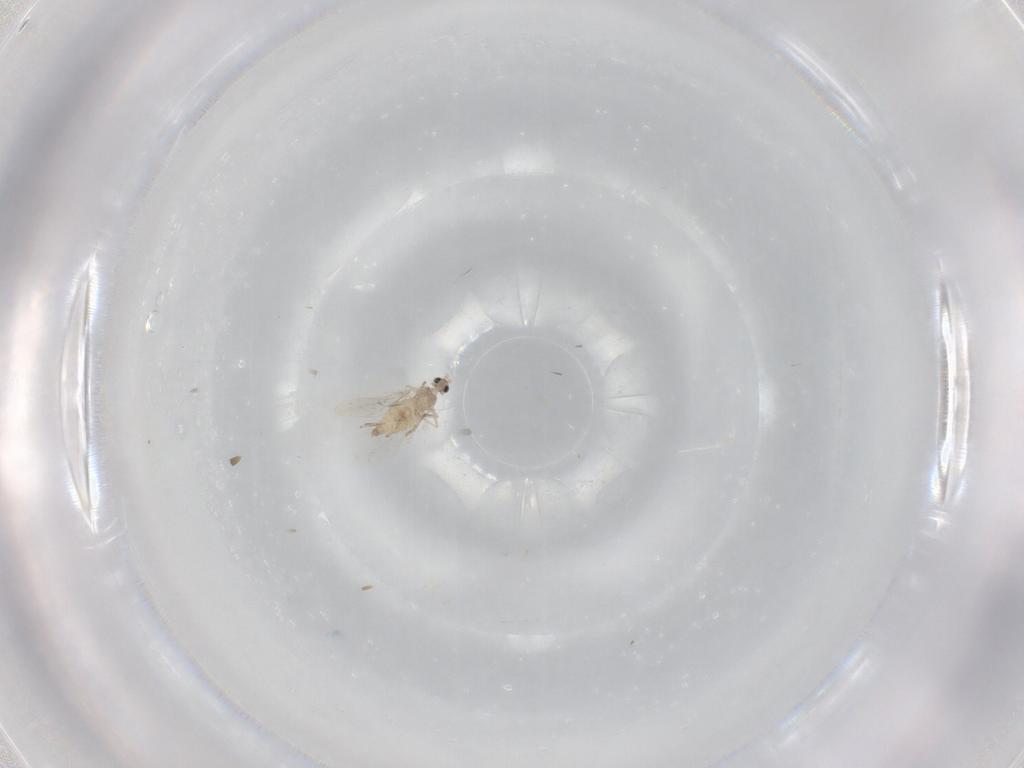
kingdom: Animalia
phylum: Arthropoda
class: Insecta
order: Diptera
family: Cecidomyiidae
